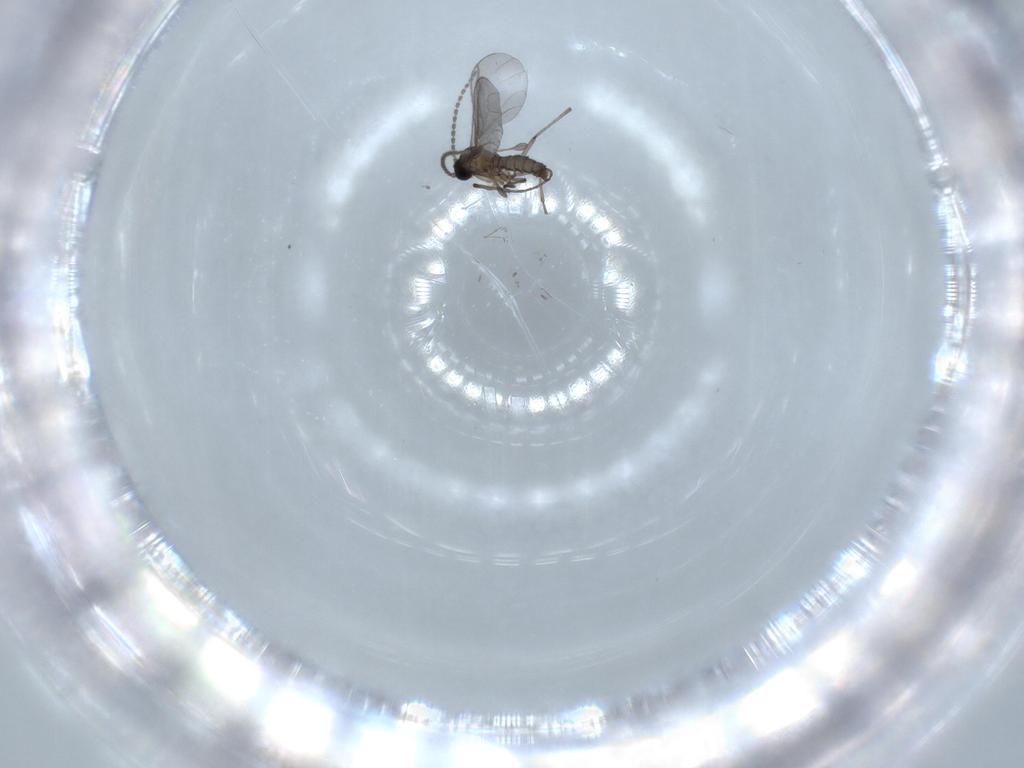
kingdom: Animalia
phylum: Arthropoda
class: Insecta
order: Diptera
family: Sciaridae
